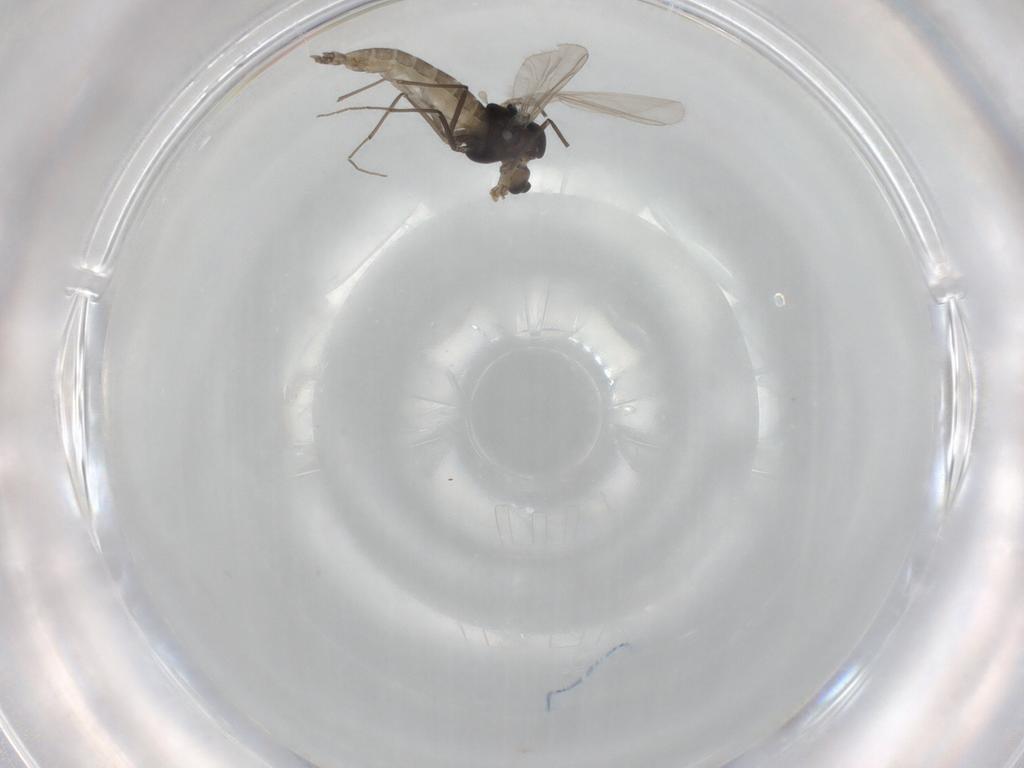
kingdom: Animalia
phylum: Arthropoda
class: Insecta
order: Diptera
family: Chironomidae
